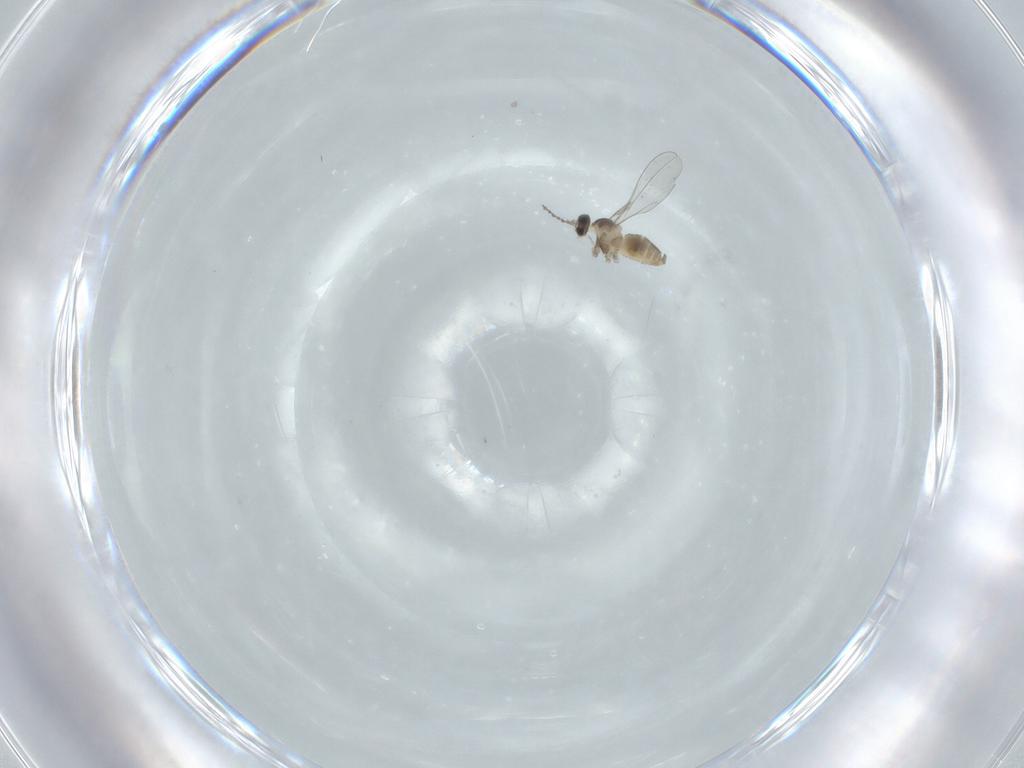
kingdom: Animalia
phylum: Arthropoda
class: Insecta
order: Diptera
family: Cecidomyiidae
